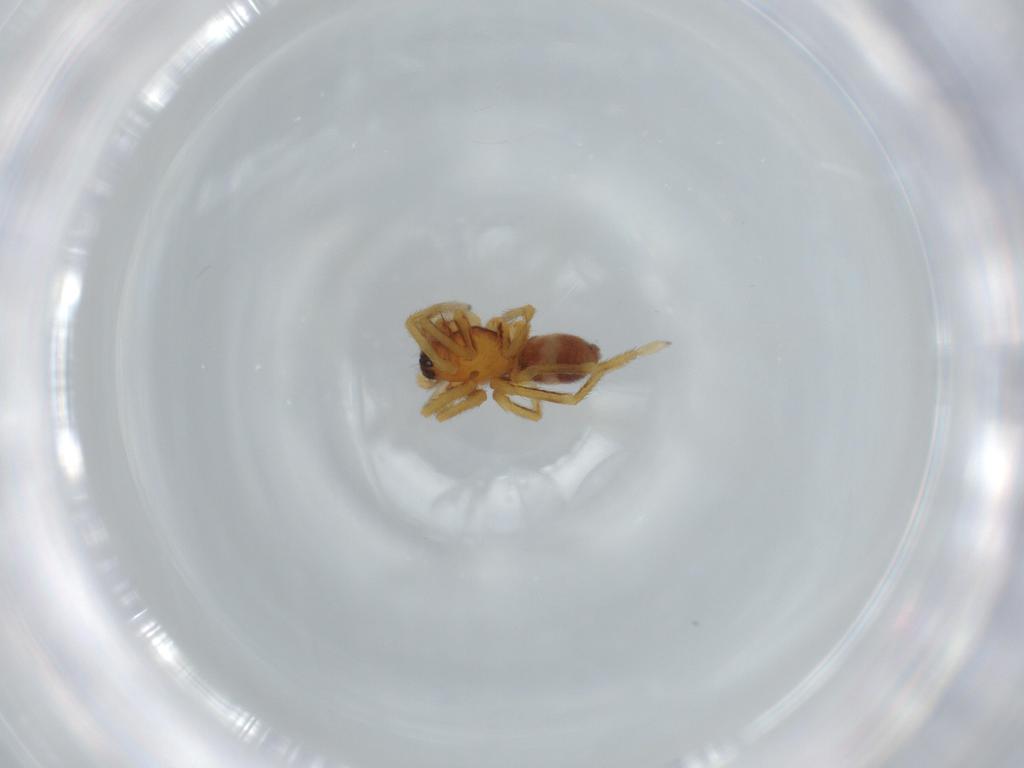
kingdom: Animalia
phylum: Arthropoda
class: Arachnida
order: Araneae
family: Corinnidae
